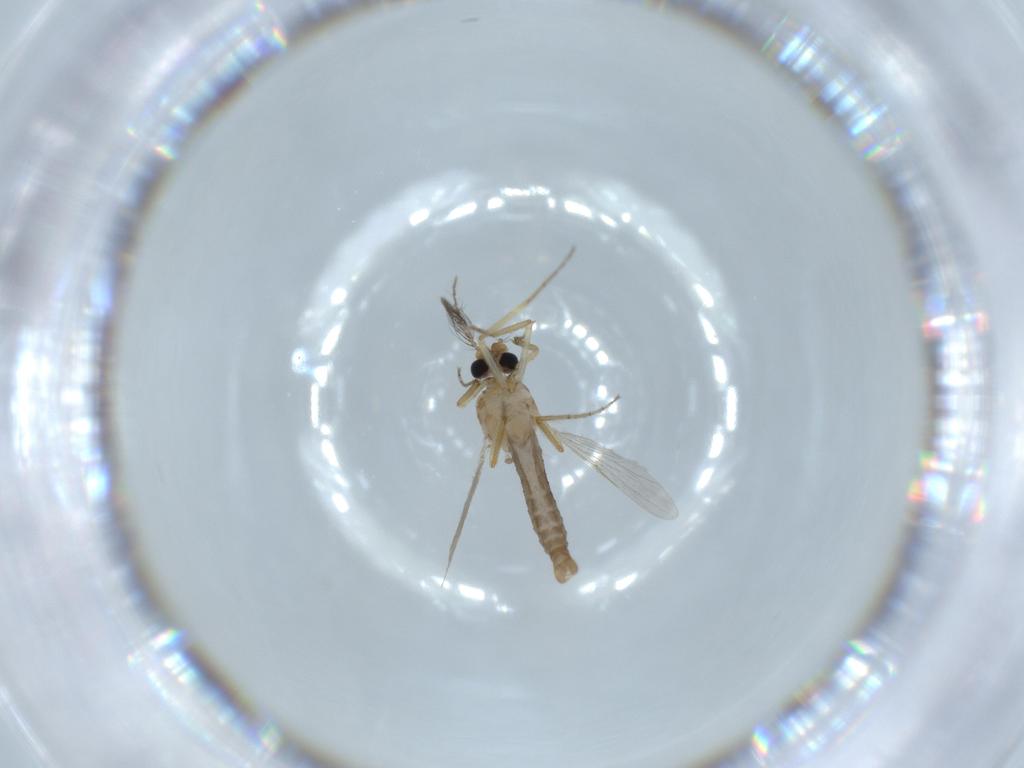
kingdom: Animalia
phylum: Arthropoda
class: Insecta
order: Diptera
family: Ceratopogonidae
